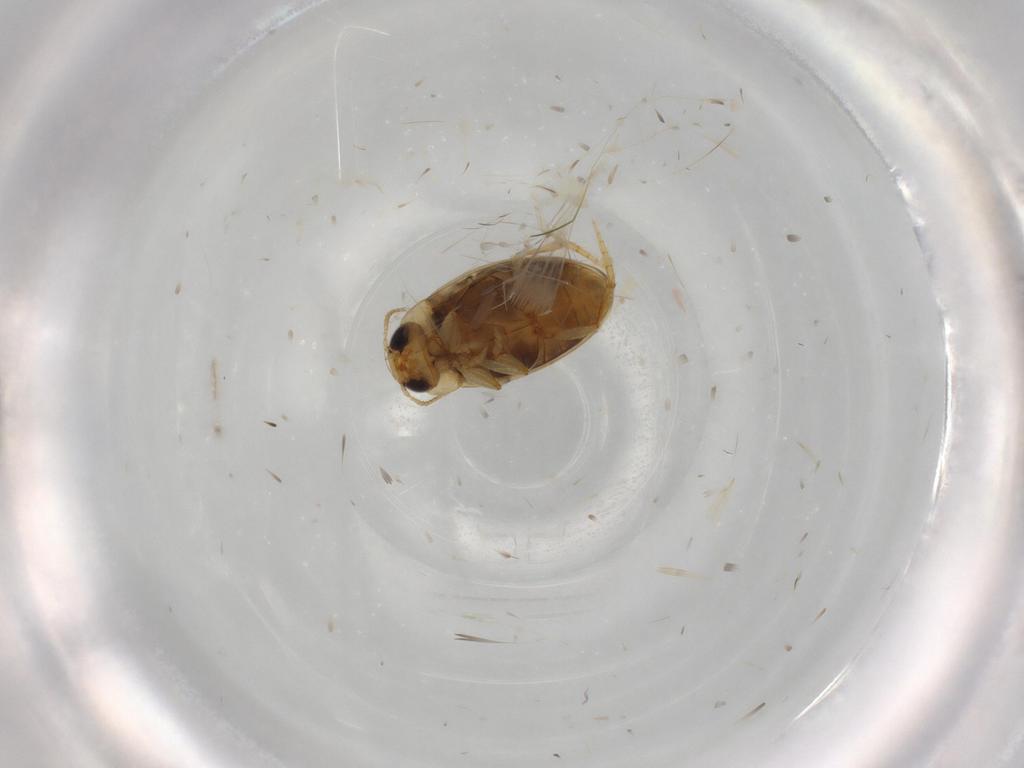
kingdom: Animalia
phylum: Arthropoda
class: Insecta
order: Coleoptera
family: Dytiscidae
